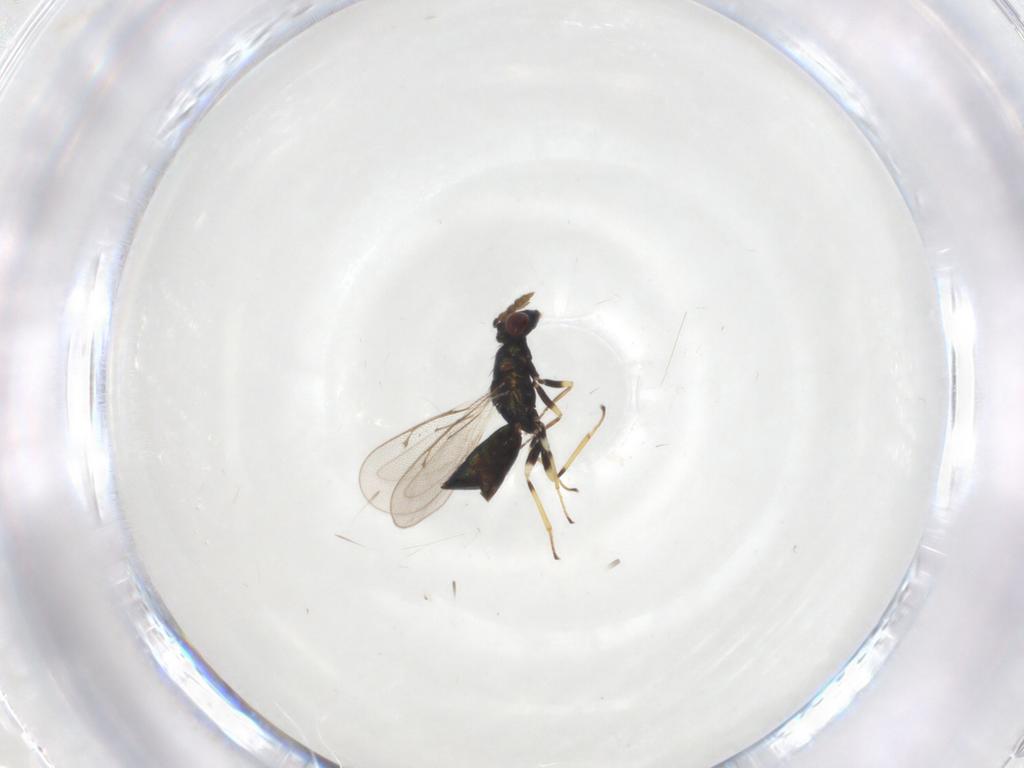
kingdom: Animalia
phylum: Arthropoda
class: Insecta
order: Hymenoptera
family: Eulophidae
